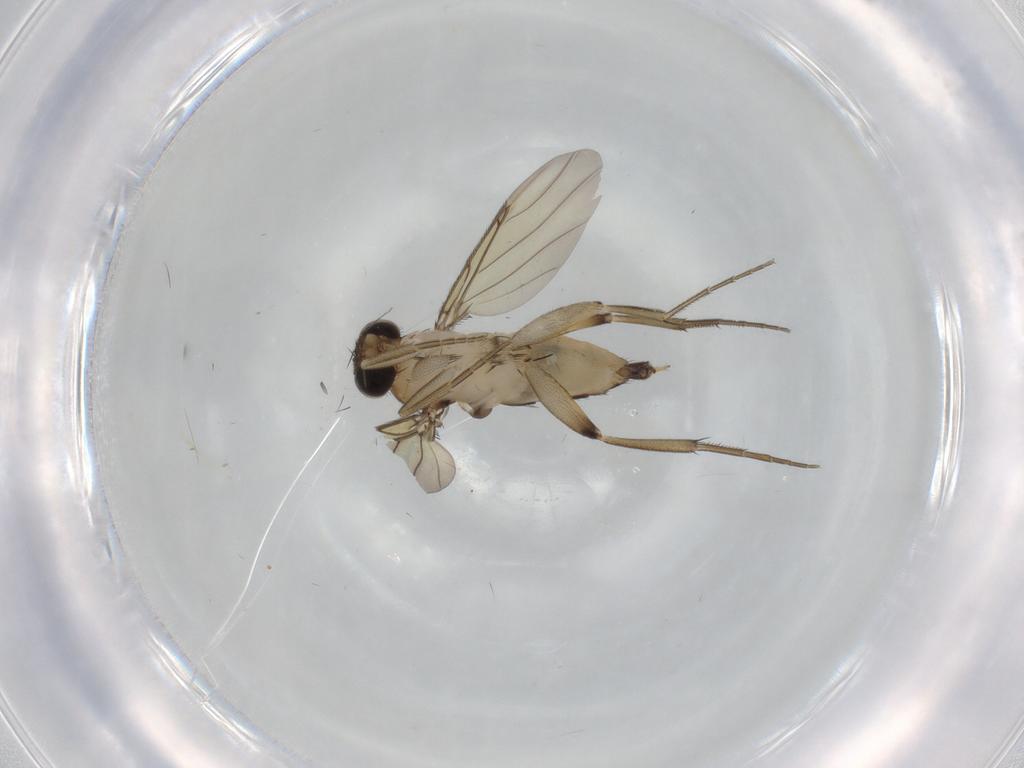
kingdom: Animalia
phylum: Arthropoda
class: Insecta
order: Diptera
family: Chironomidae
